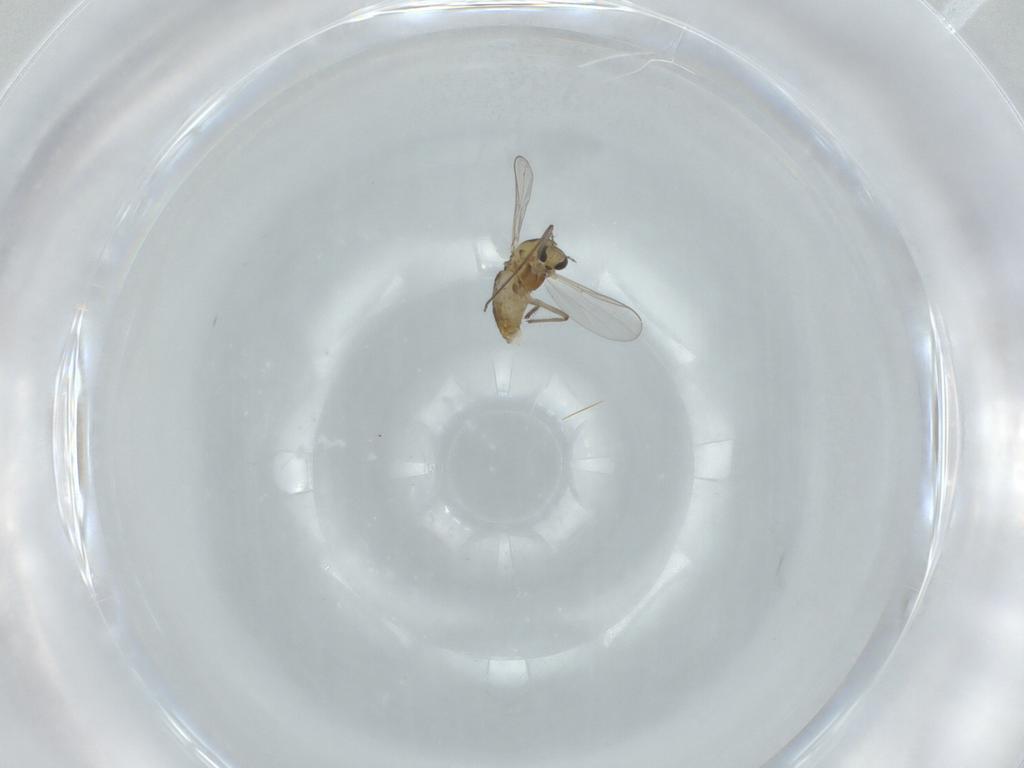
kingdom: Animalia
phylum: Arthropoda
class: Insecta
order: Diptera
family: Chironomidae
